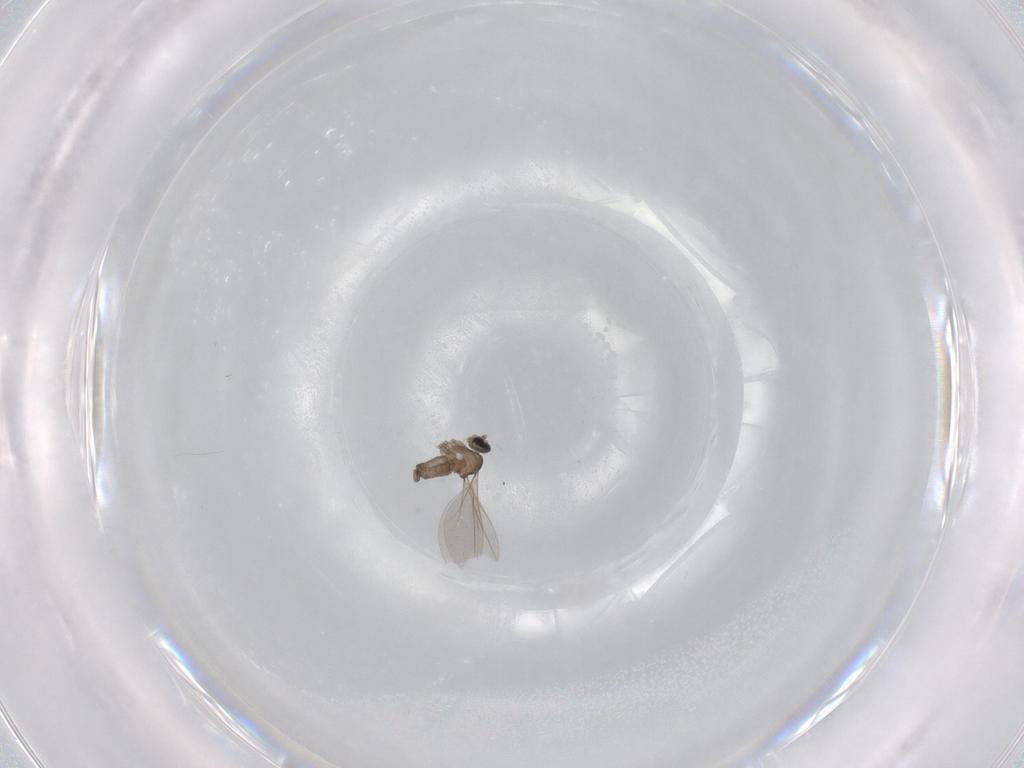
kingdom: Animalia
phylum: Arthropoda
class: Insecta
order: Diptera
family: Cecidomyiidae
